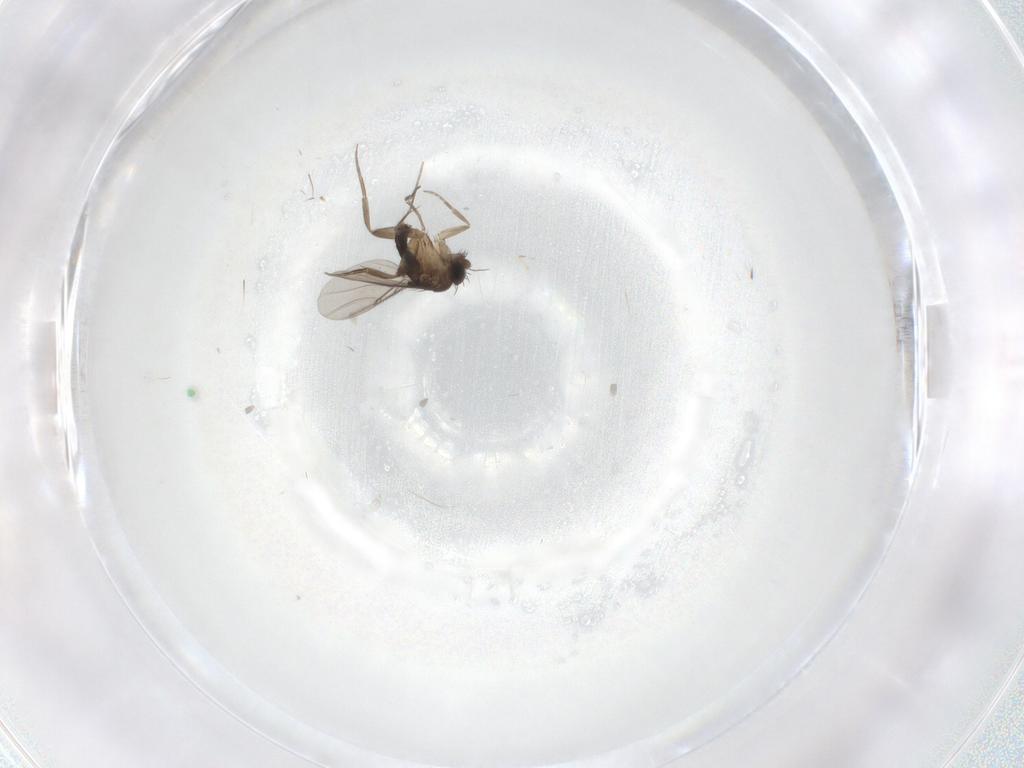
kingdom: Animalia
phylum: Arthropoda
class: Insecta
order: Diptera
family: Phoridae
